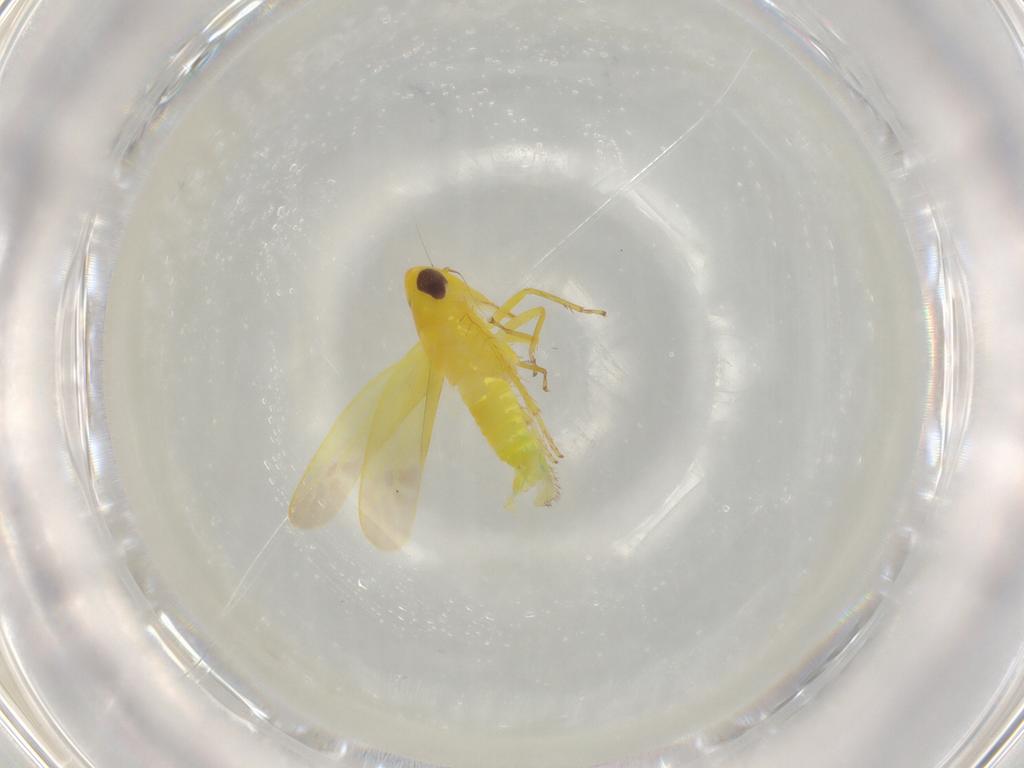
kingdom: Animalia
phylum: Arthropoda
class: Insecta
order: Hemiptera
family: Cicadellidae
